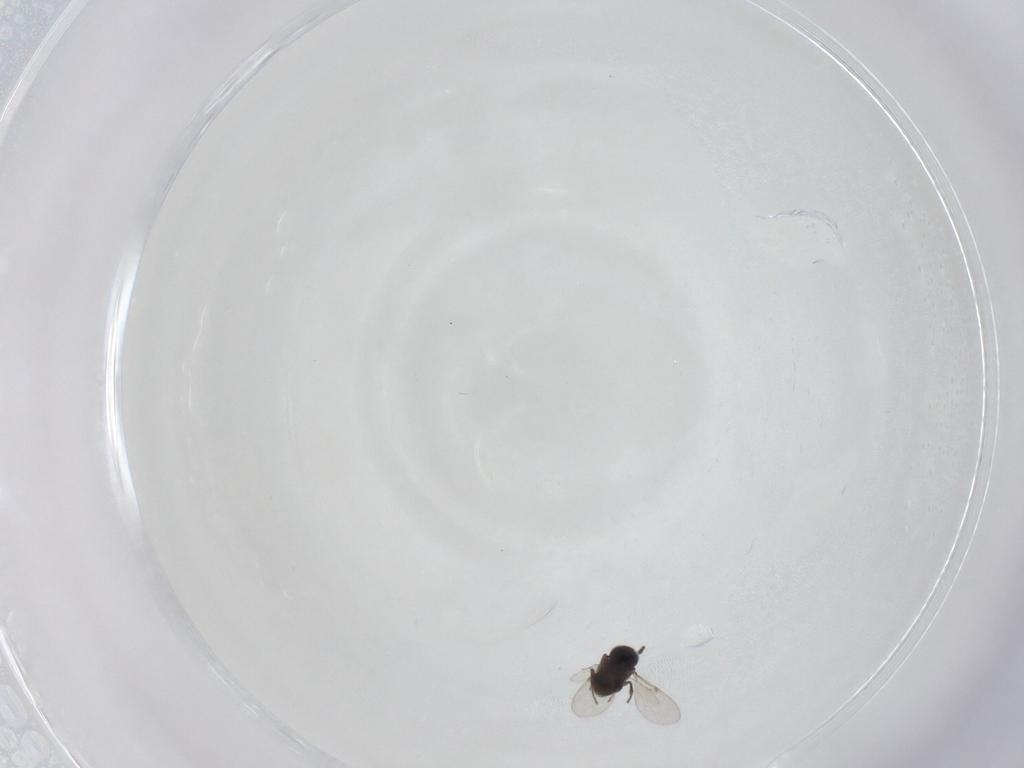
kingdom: Animalia
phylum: Arthropoda
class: Insecta
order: Hymenoptera
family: Encyrtidae
